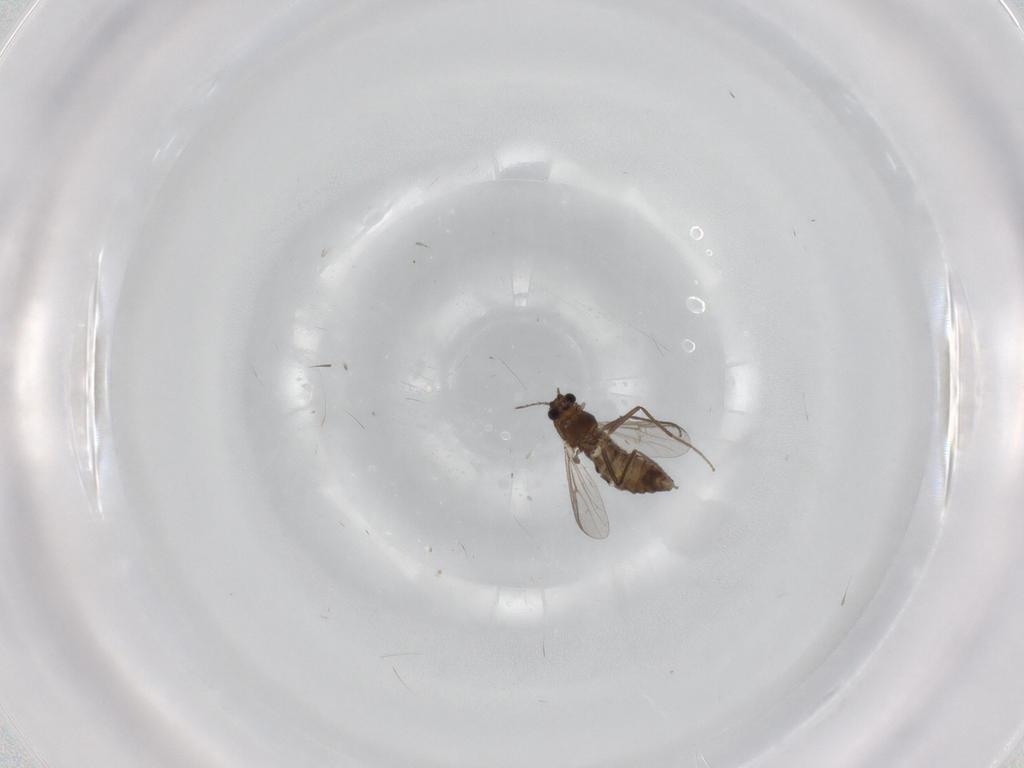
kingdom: Animalia
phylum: Arthropoda
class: Insecta
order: Diptera
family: Chironomidae
